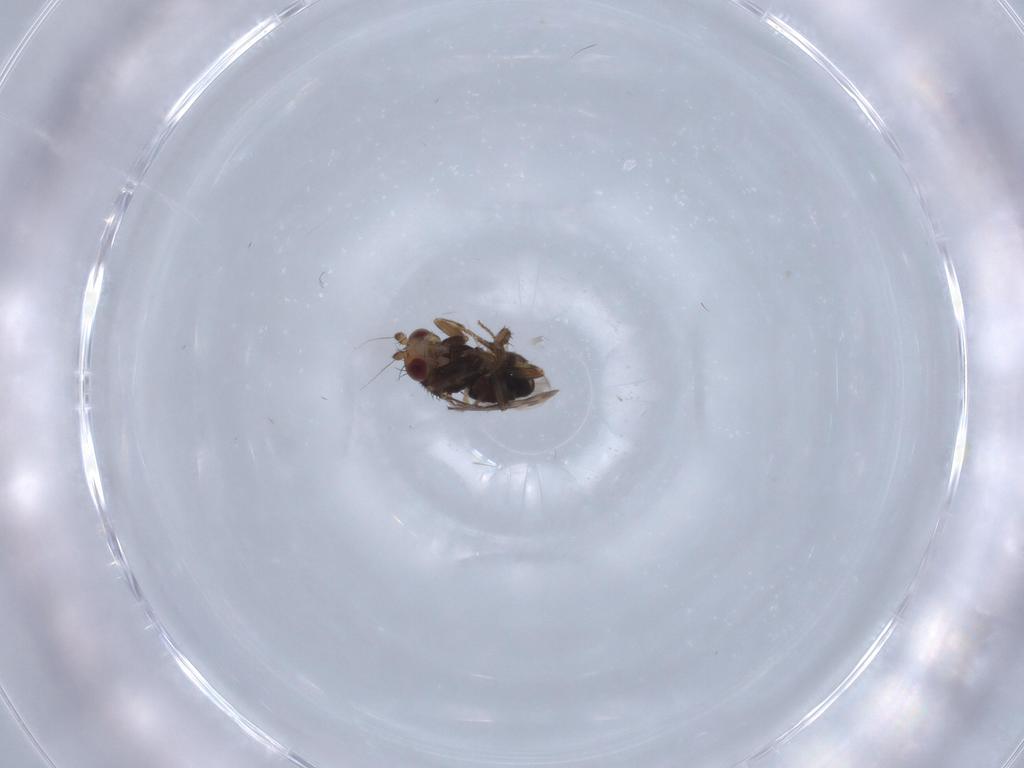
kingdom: Animalia
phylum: Arthropoda
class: Insecta
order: Diptera
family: Sphaeroceridae
